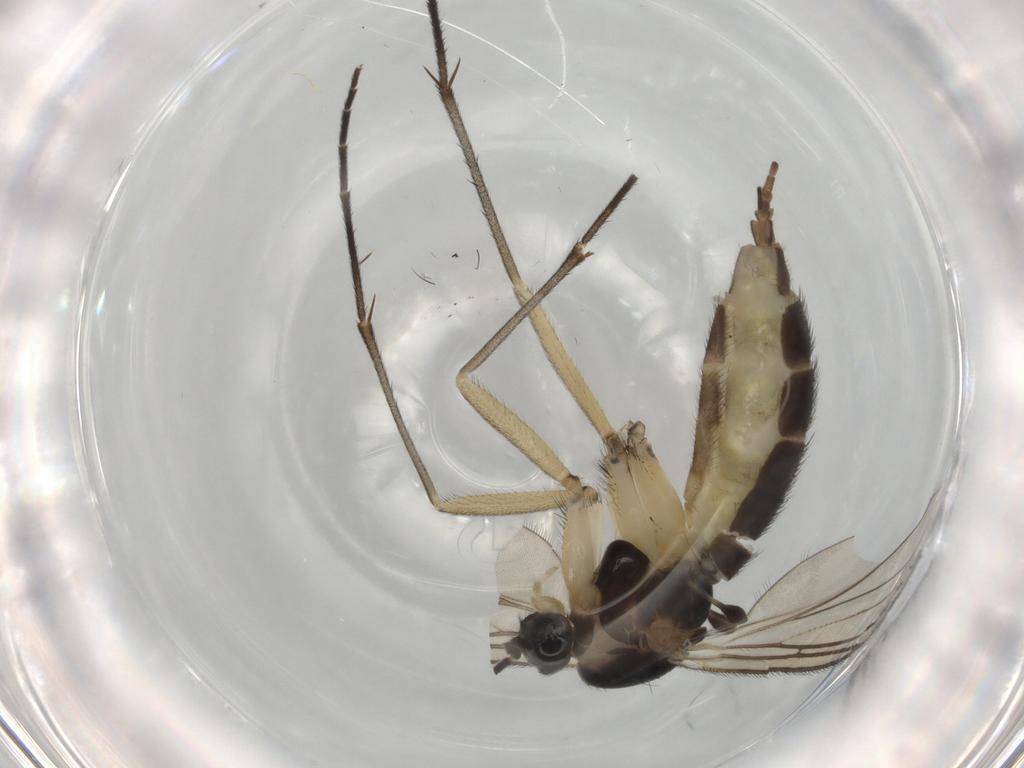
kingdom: Animalia
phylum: Arthropoda
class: Insecta
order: Diptera
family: Sciaridae
